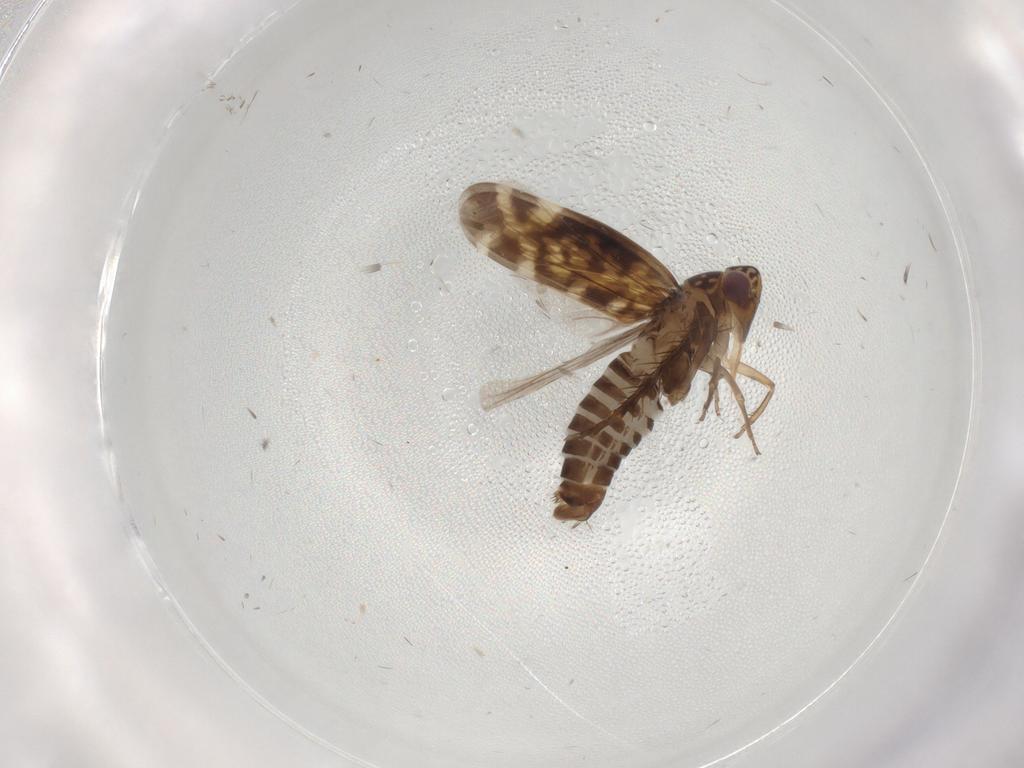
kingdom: Animalia
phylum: Arthropoda
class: Insecta
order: Hemiptera
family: Cicadellidae
